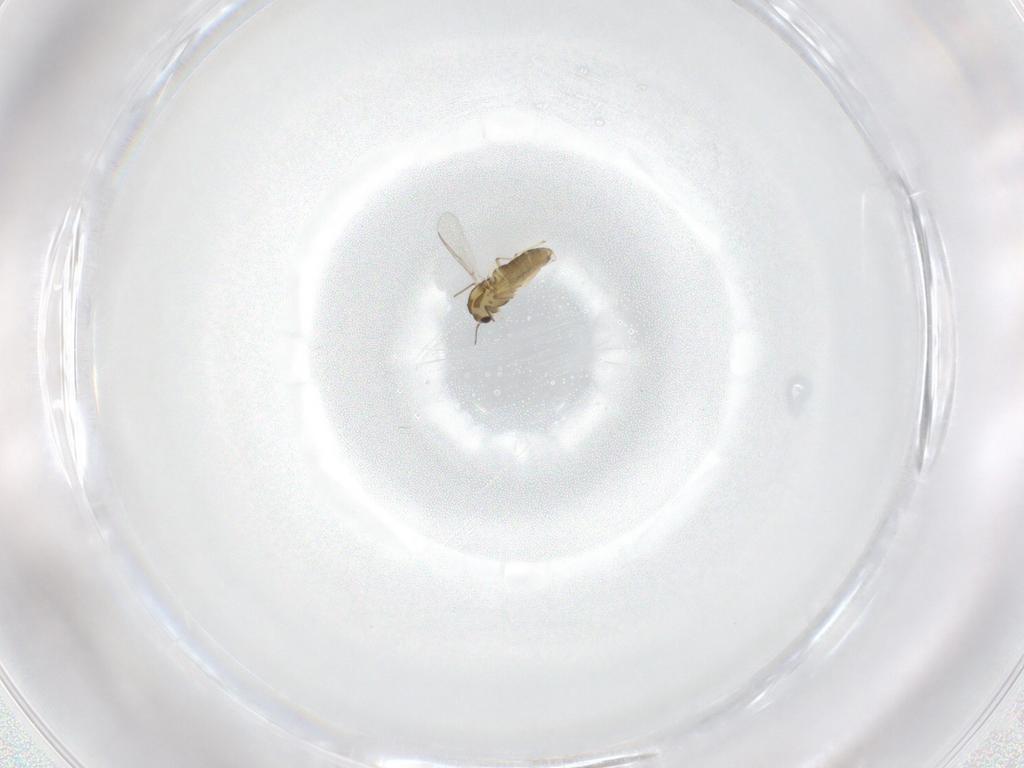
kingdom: Animalia
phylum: Arthropoda
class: Insecta
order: Diptera
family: Chironomidae
